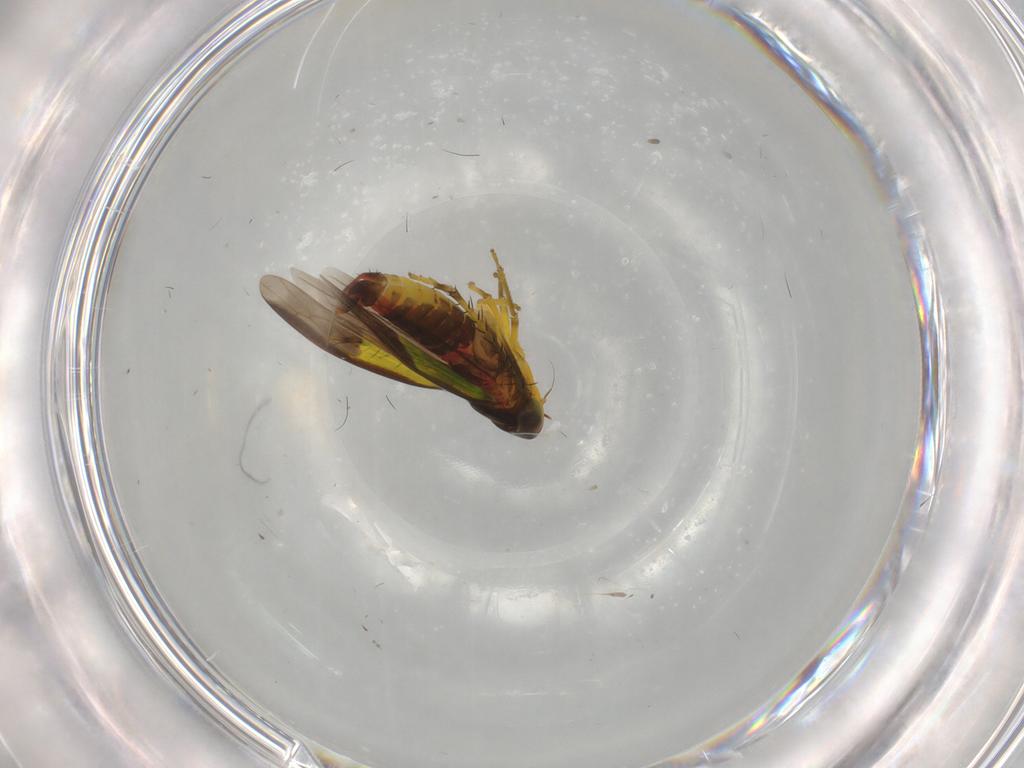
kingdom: Animalia
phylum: Arthropoda
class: Insecta
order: Hemiptera
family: Cicadellidae
